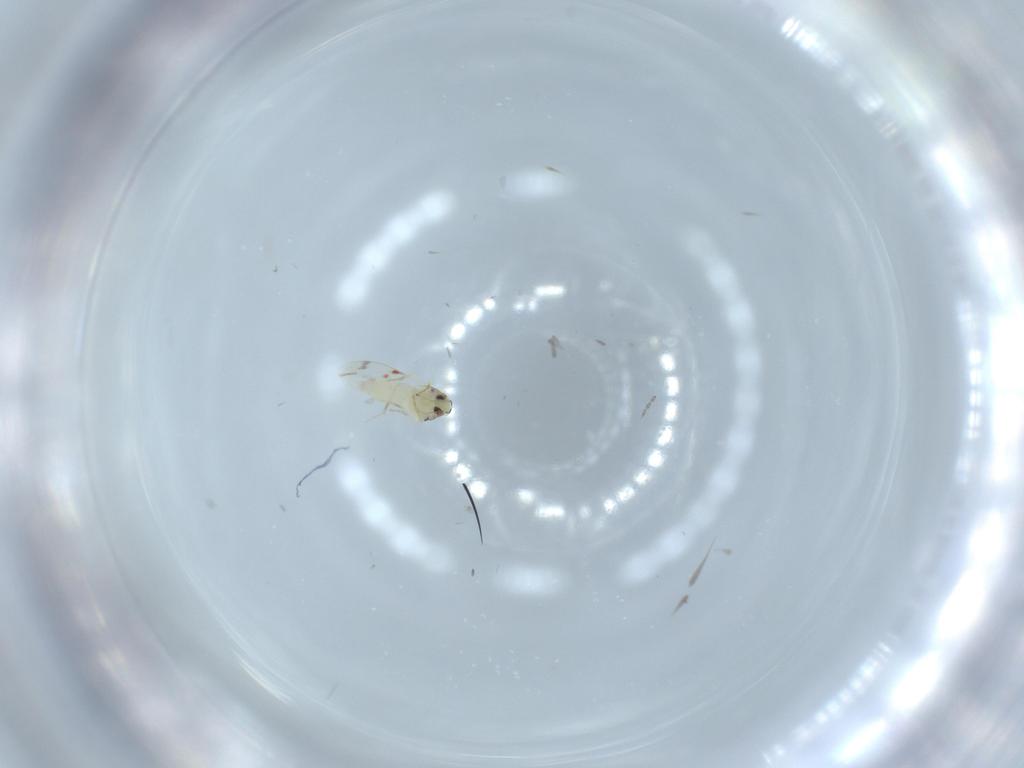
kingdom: Animalia
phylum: Arthropoda
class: Insecta
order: Hemiptera
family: Aleyrodidae
